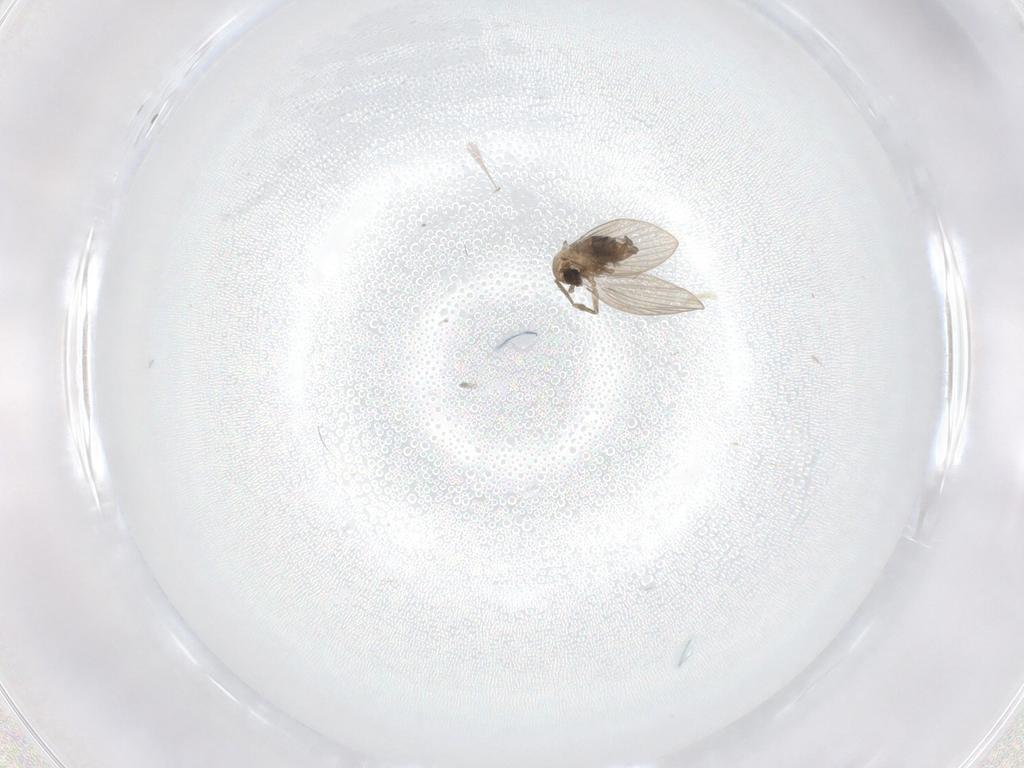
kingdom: Animalia
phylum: Arthropoda
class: Insecta
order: Diptera
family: Psychodidae
